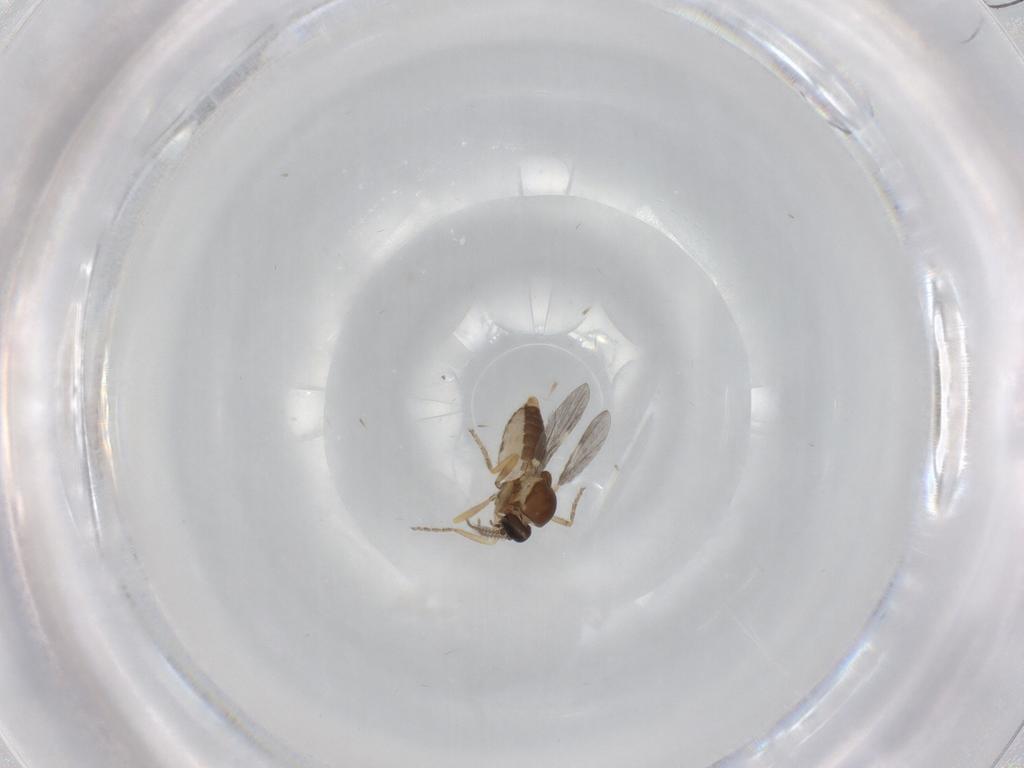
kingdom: Animalia
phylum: Arthropoda
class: Insecta
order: Diptera
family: Ceratopogonidae
